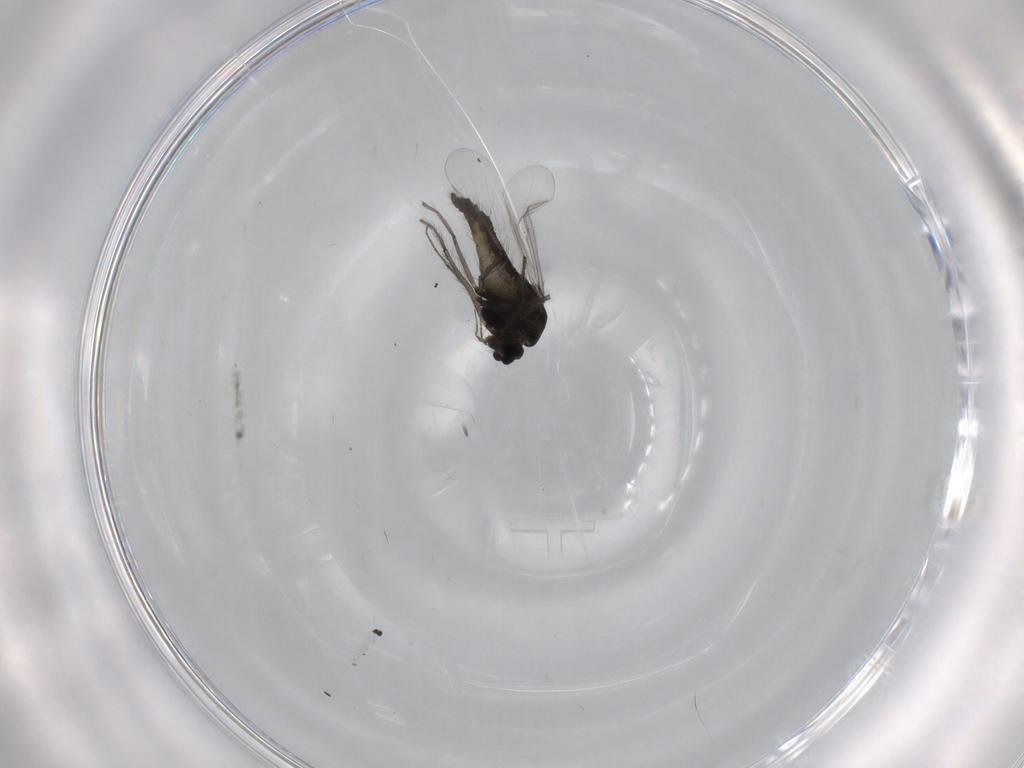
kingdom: Animalia
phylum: Arthropoda
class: Insecta
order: Diptera
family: Chironomidae
